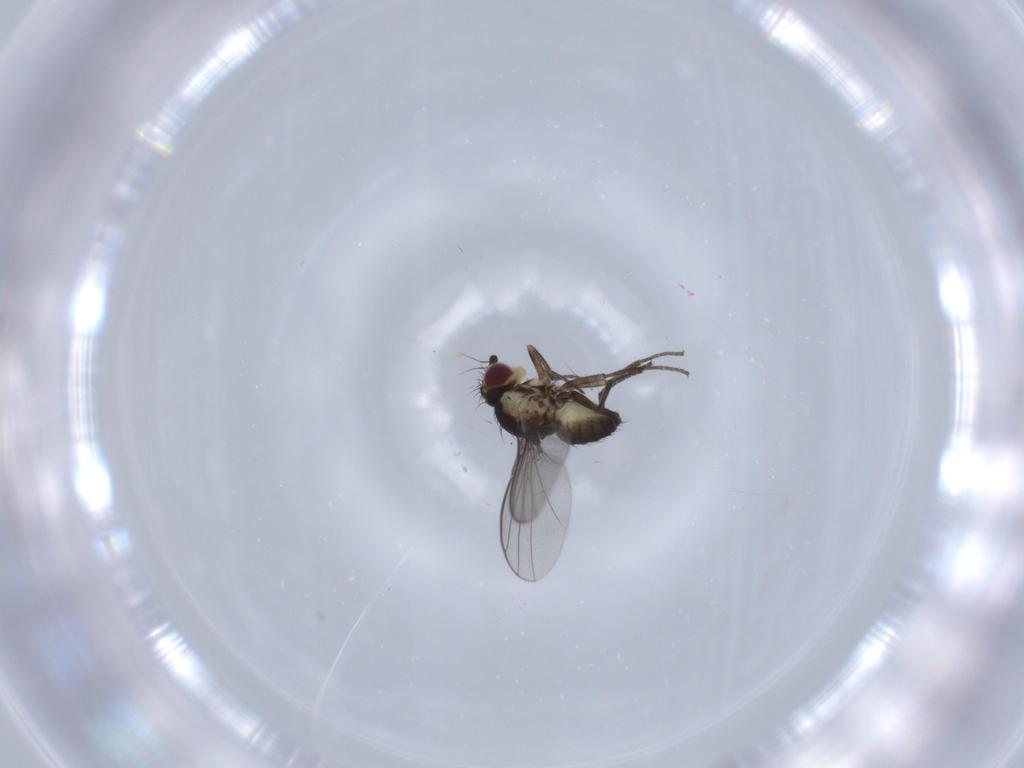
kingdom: Animalia
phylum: Arthropoda
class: Insecta
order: Diptera
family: Agromyzidae
